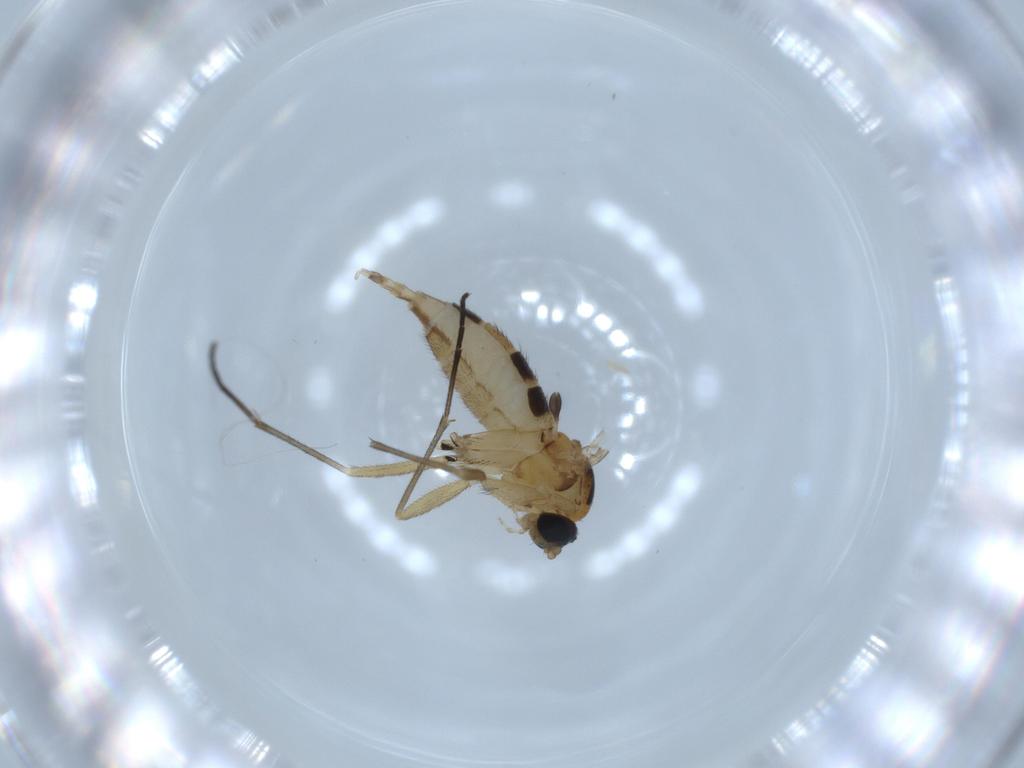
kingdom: Animalia
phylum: Arthropoda
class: Insecta
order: Diptera
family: Sciaridae
